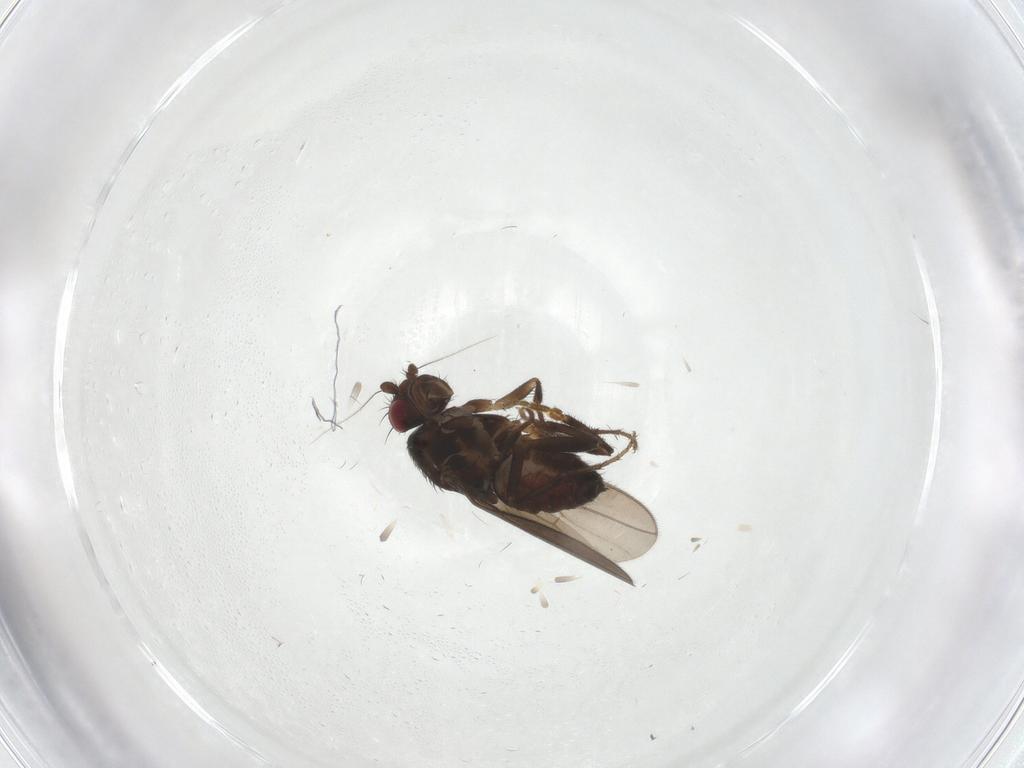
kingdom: Animalia
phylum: Arthropoda
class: Insecta
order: Diptera
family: Sphaeroceridae
